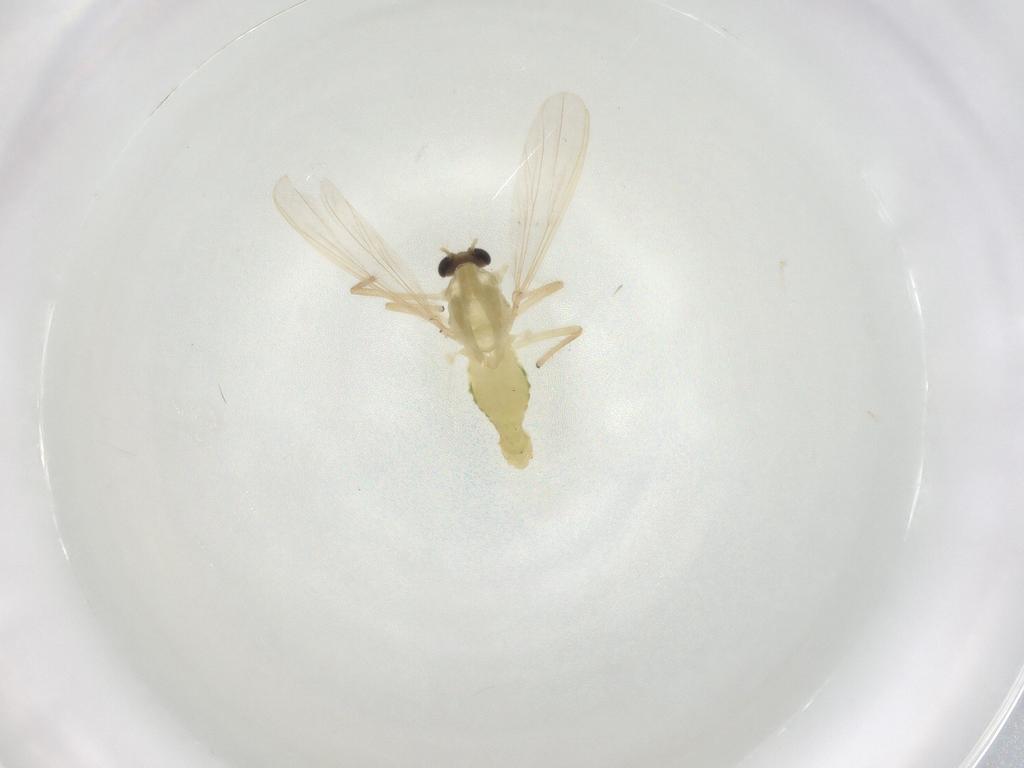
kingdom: Animalia
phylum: Arthropoda
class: Insecta
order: Diptera
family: Chironomidae
